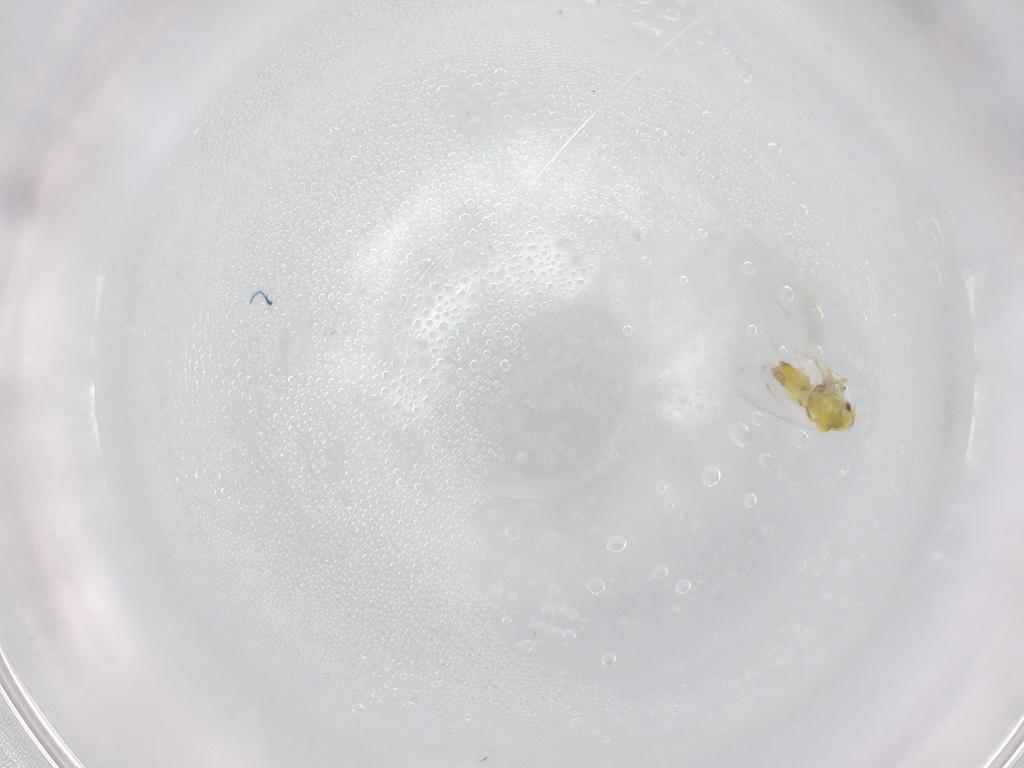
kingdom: Animalia
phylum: Arthropoda
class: Insecta
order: Hemiptera
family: Aleyrodidae
